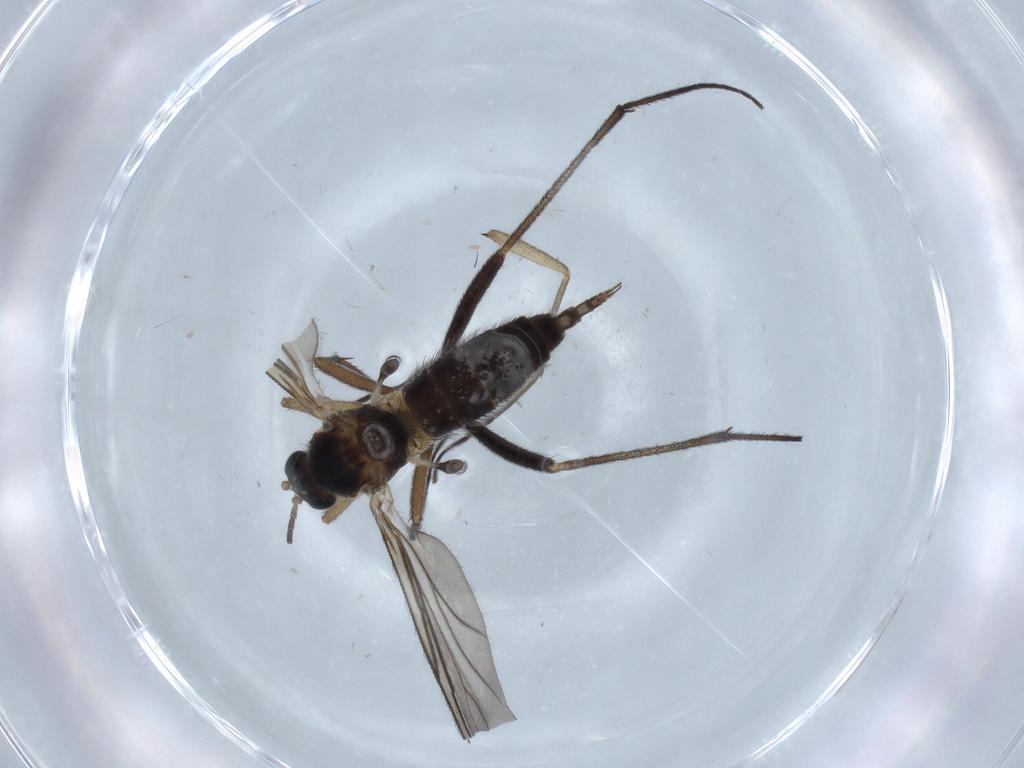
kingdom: Animalia
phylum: Arthropoda
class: Insecta
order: Diptera
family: Sciaridae
